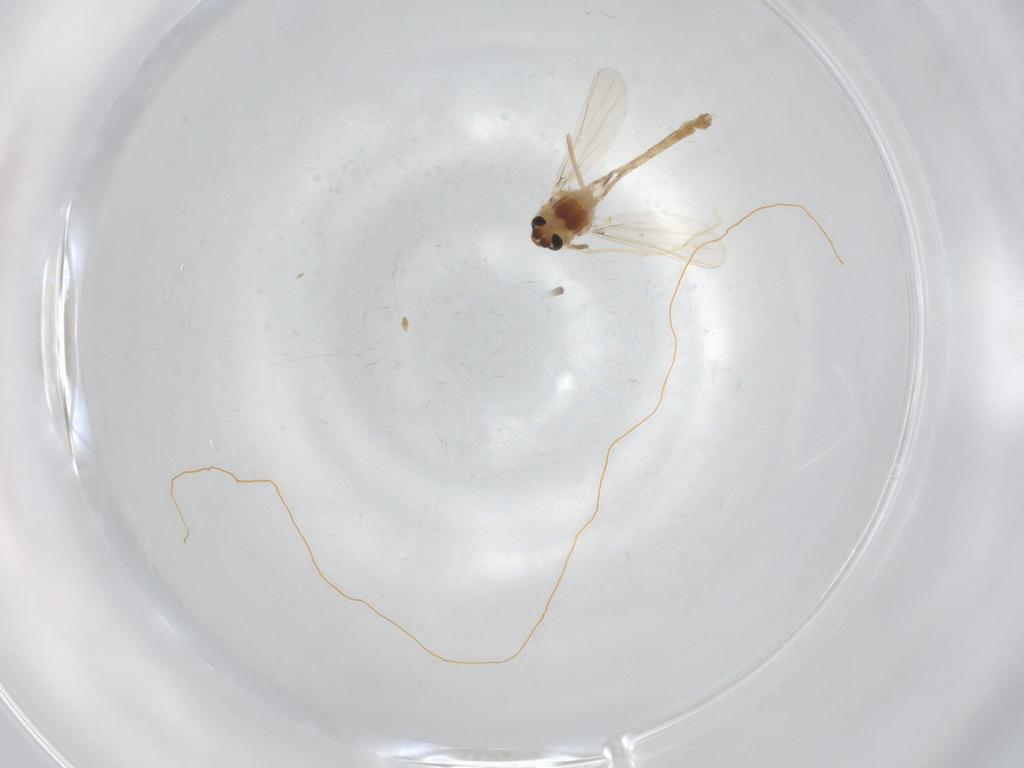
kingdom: Animalia
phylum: Arthropoda
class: Insecta
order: Diptera
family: Chironomidae
